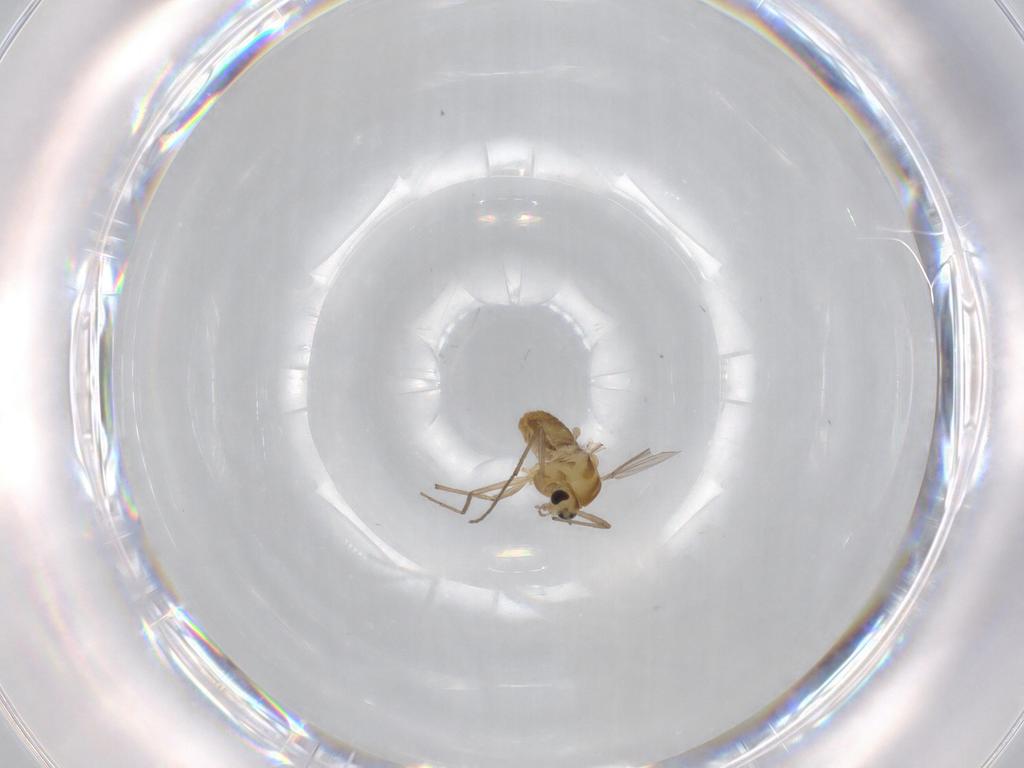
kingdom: Animalia
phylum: Arthropoda
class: Insecta
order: Diptera
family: Chironomidae
